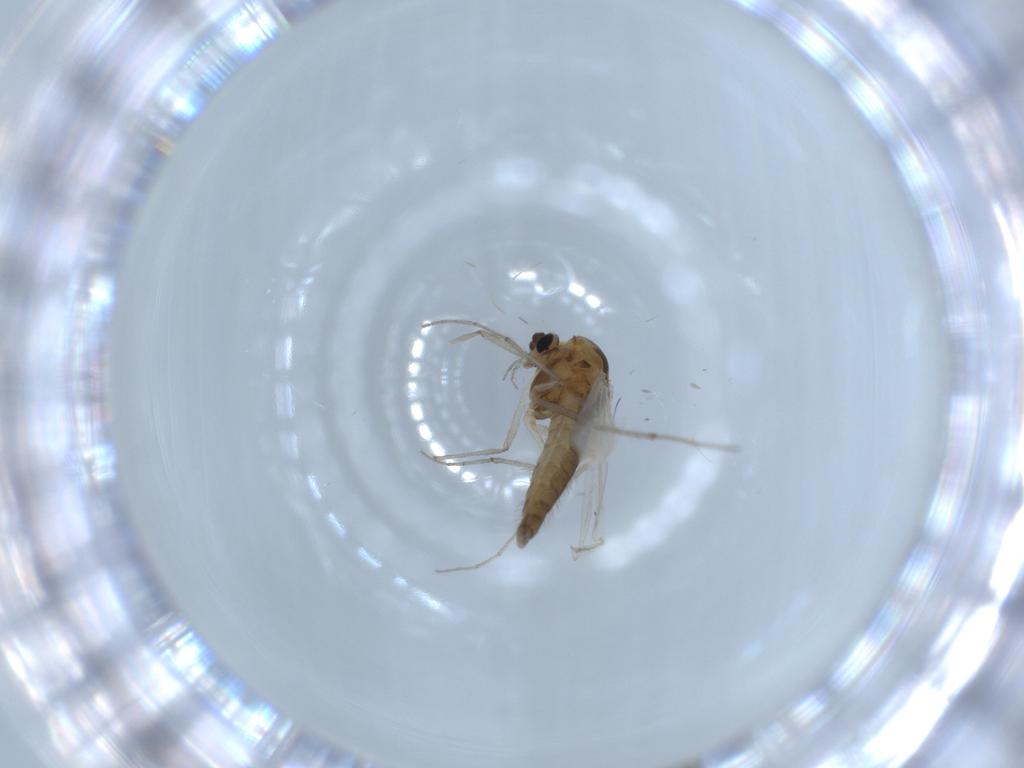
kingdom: Animalia
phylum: Arthropoda
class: Insecta
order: Diptera
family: Chironomidae
